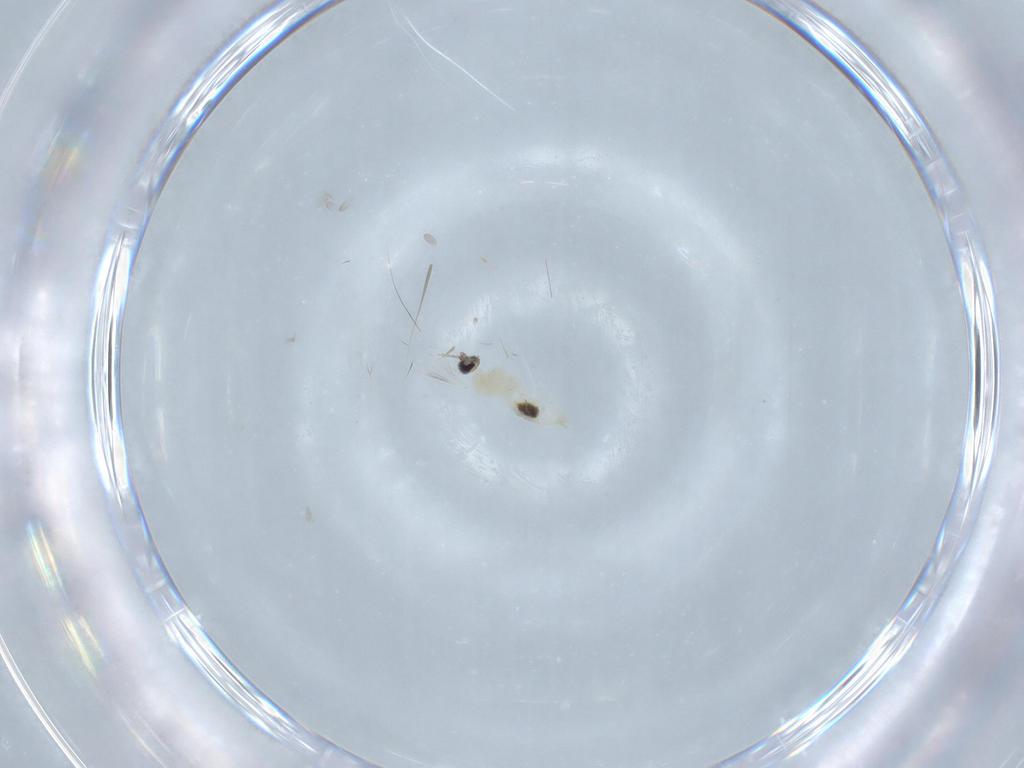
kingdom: Animalia
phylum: Arthropoda
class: Insecta
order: Diptera
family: Cecidomyiidae
